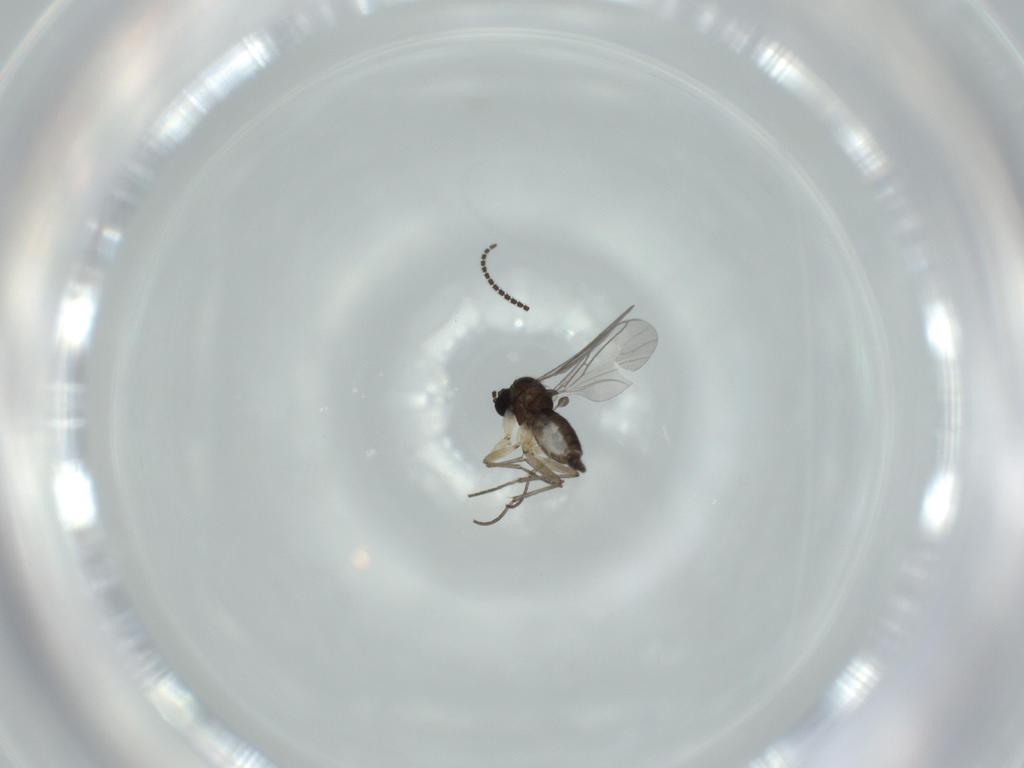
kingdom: Animalia
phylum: Arthropoda
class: Insecta
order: Diptera
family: Sciaridae
